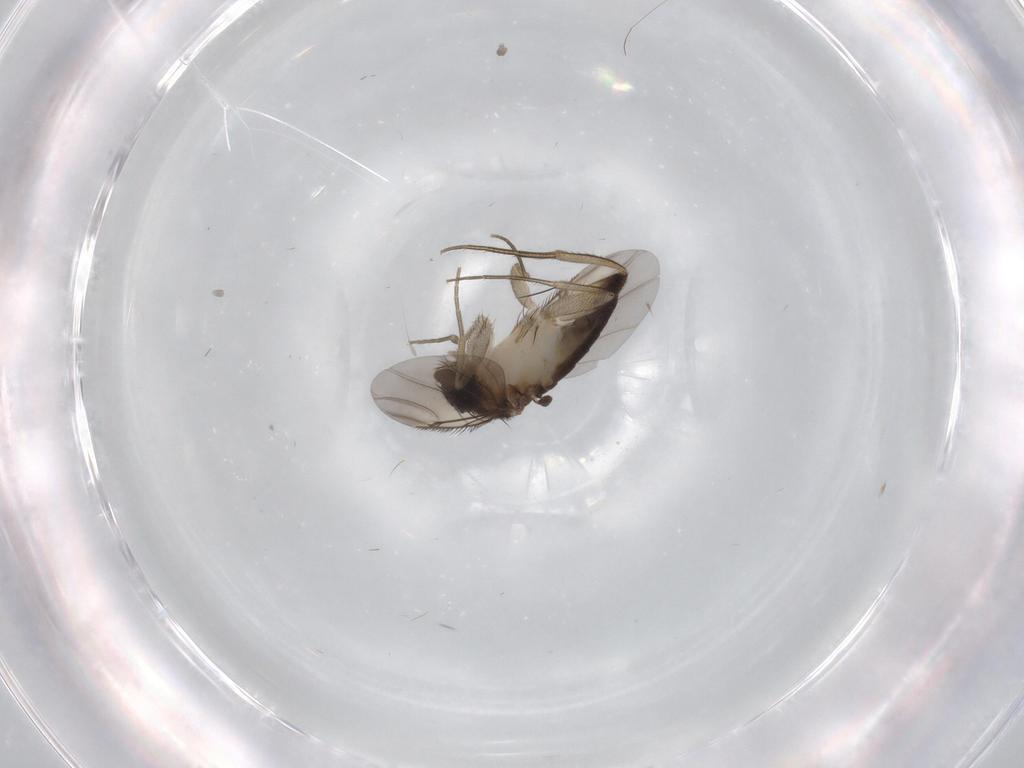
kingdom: Animalia
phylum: Arthropoda
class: Insecta
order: Diptera
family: Phoridae
